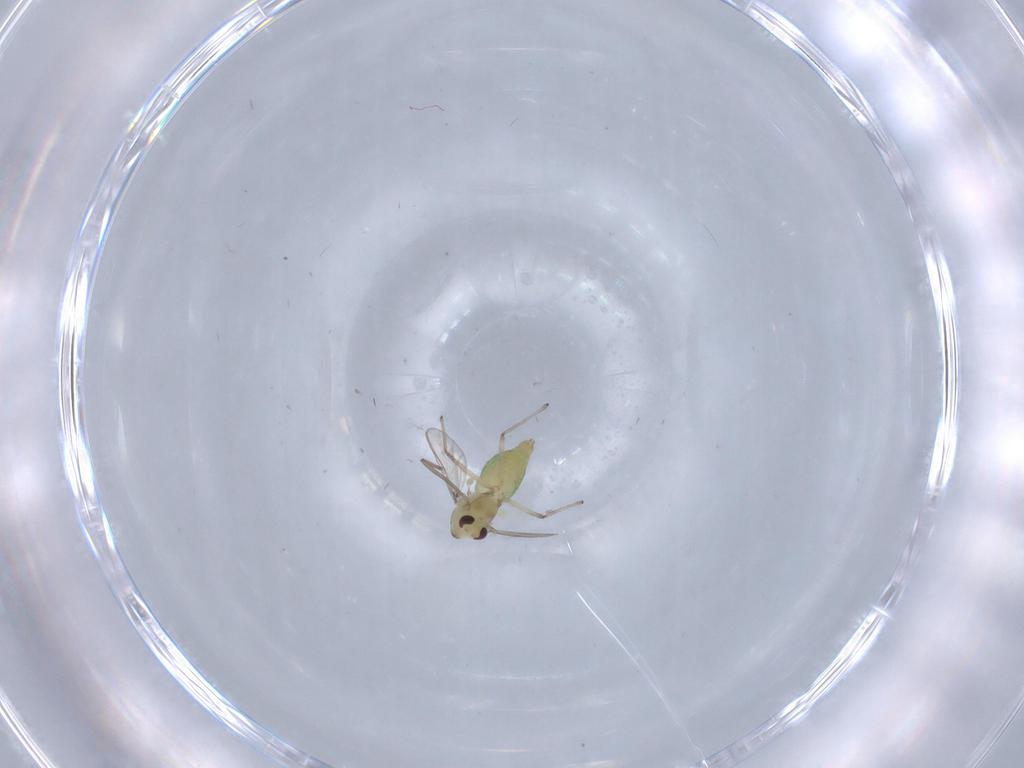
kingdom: Animalia
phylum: Arthropoda
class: Insecta
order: Diptera
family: Chironomidae
